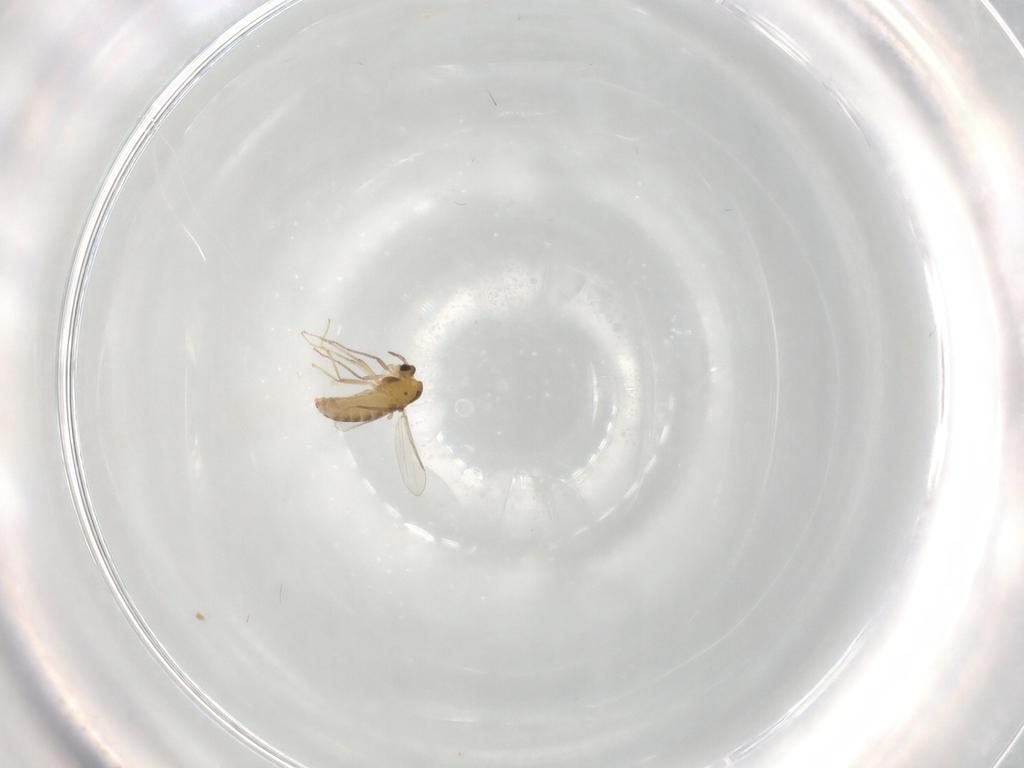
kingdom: Animalia
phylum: Arthropoda
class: Insecta
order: Diptera
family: Chironomidae
